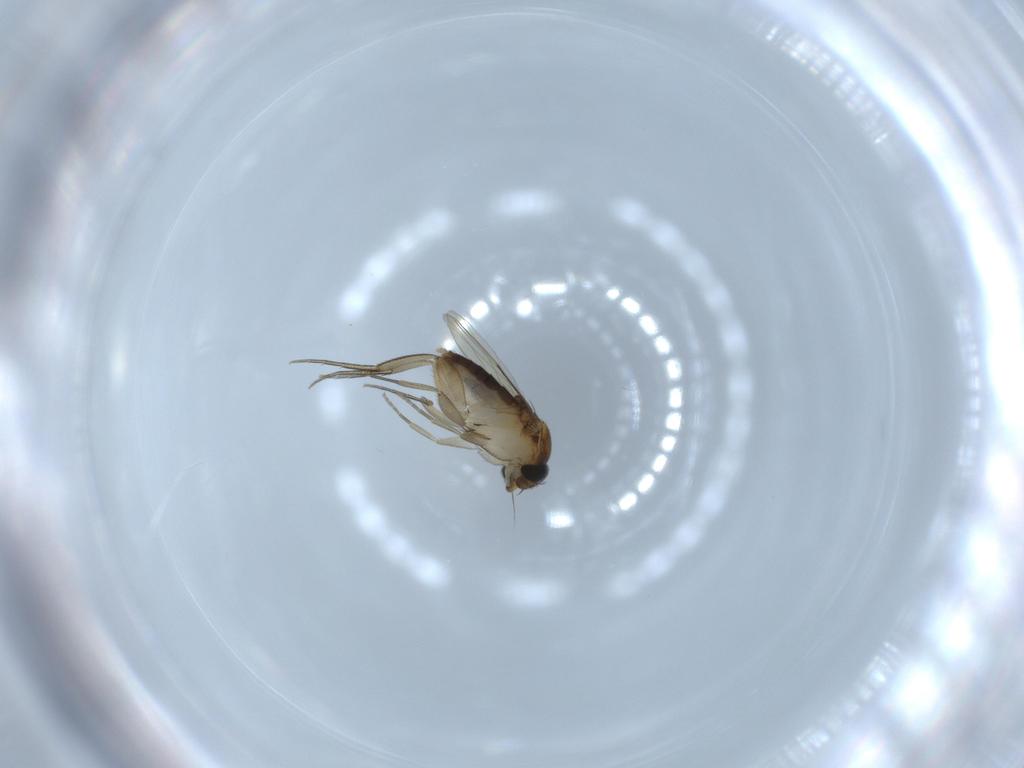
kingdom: Animalia
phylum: Arthropoda
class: Insecta
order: Diptera
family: Phoridae
